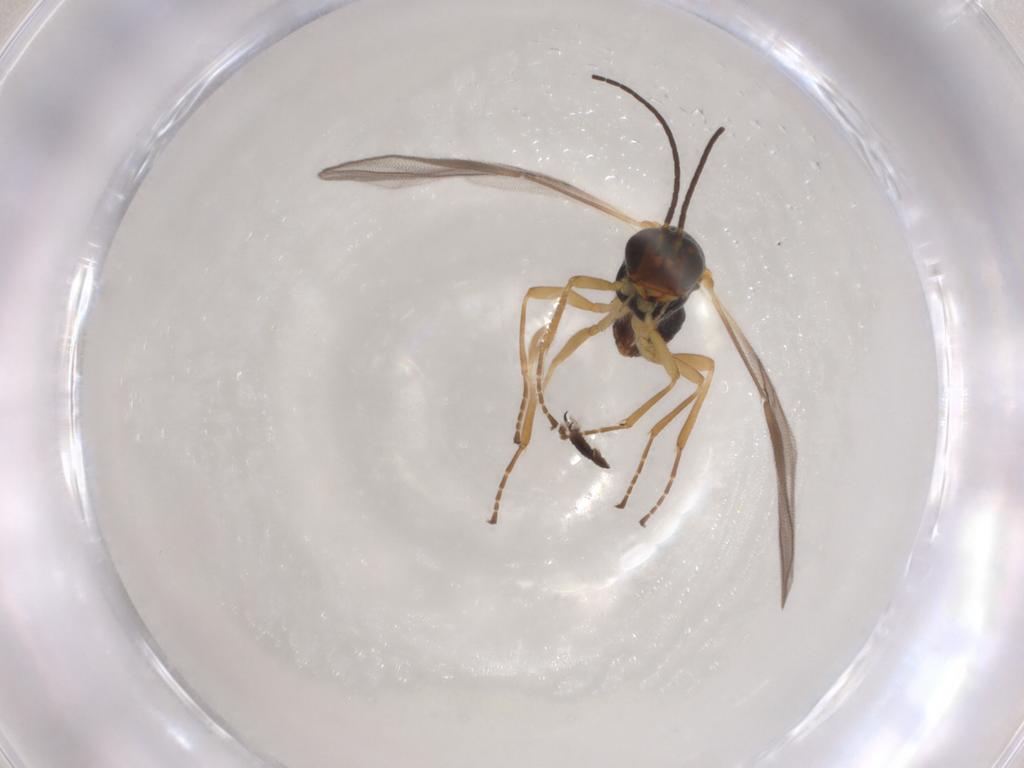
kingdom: Animalia
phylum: Arthropoda
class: Insecta
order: Hymenoptera
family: Braconidae
